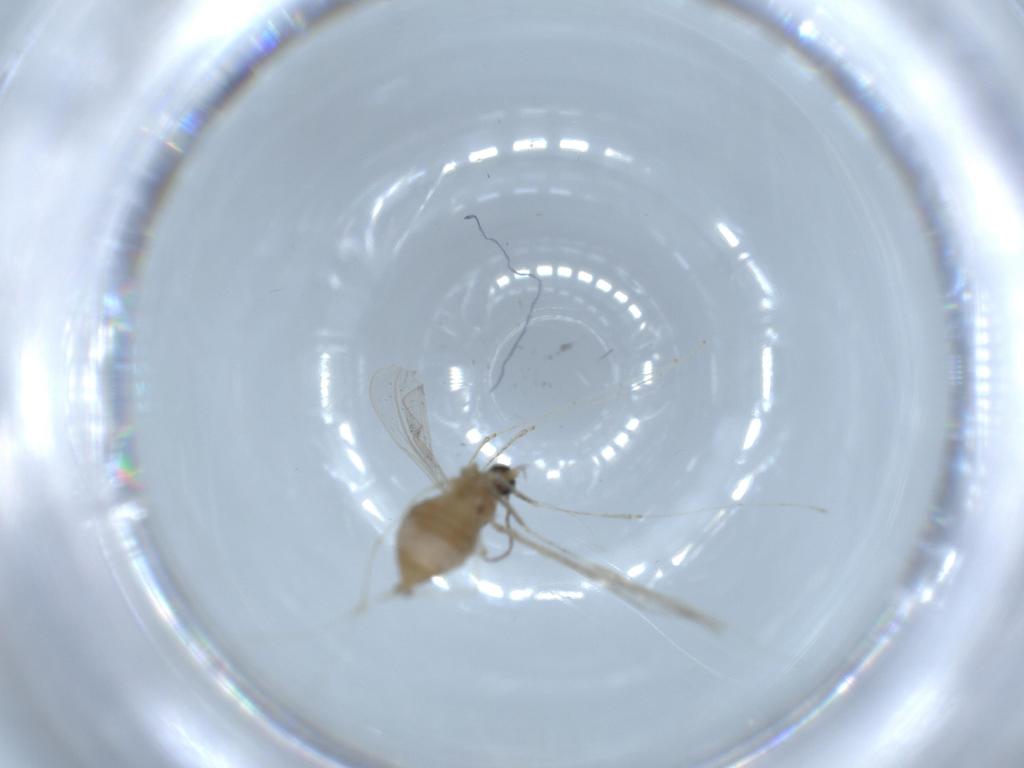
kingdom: Animalia
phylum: Arthropoda
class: Insecta
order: Diptera
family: Cecidomyiidae
